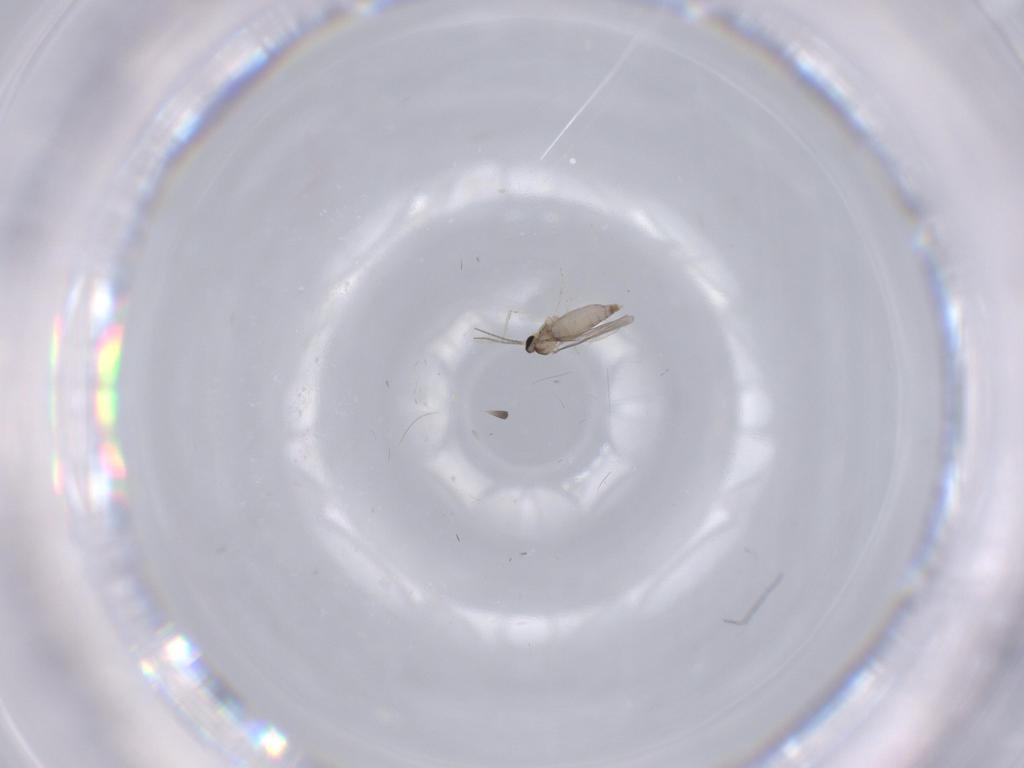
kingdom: Animalia
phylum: Arthropoda
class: Insecta
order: Diptera
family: Cecidomyiidae
